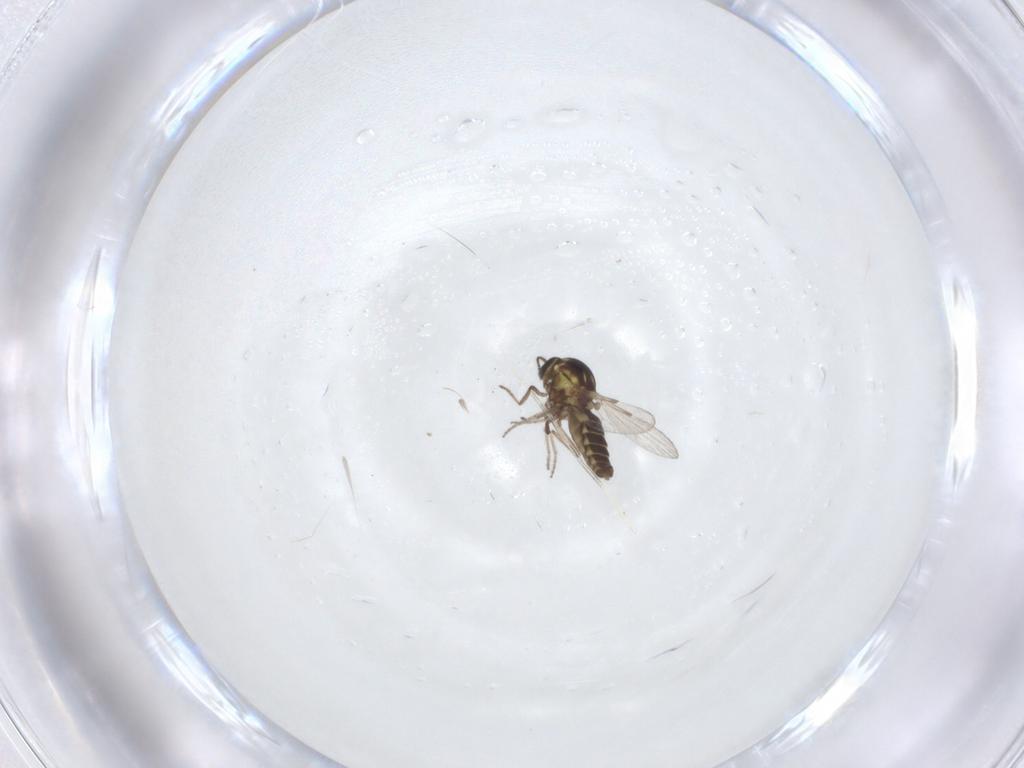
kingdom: Animalia
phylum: Arthropoda
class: Insecta
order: Diptera
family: Ceratopogonidae
